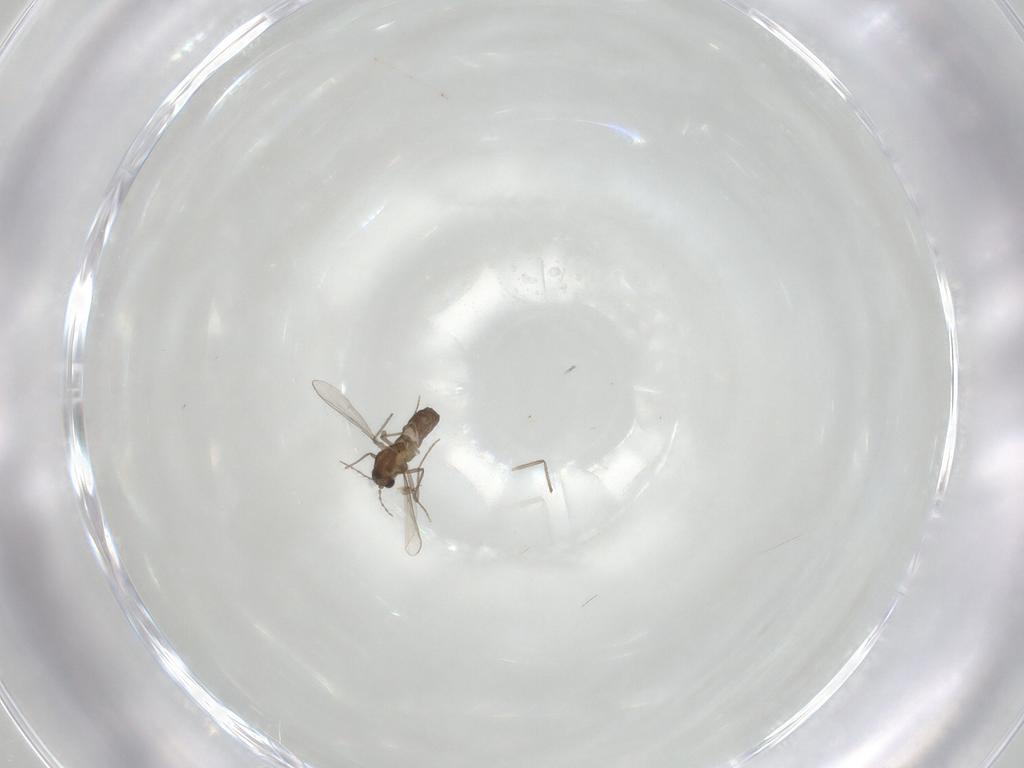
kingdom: Animalia
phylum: Arthropoda
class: Insecta
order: Diptera
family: Chironomidae
